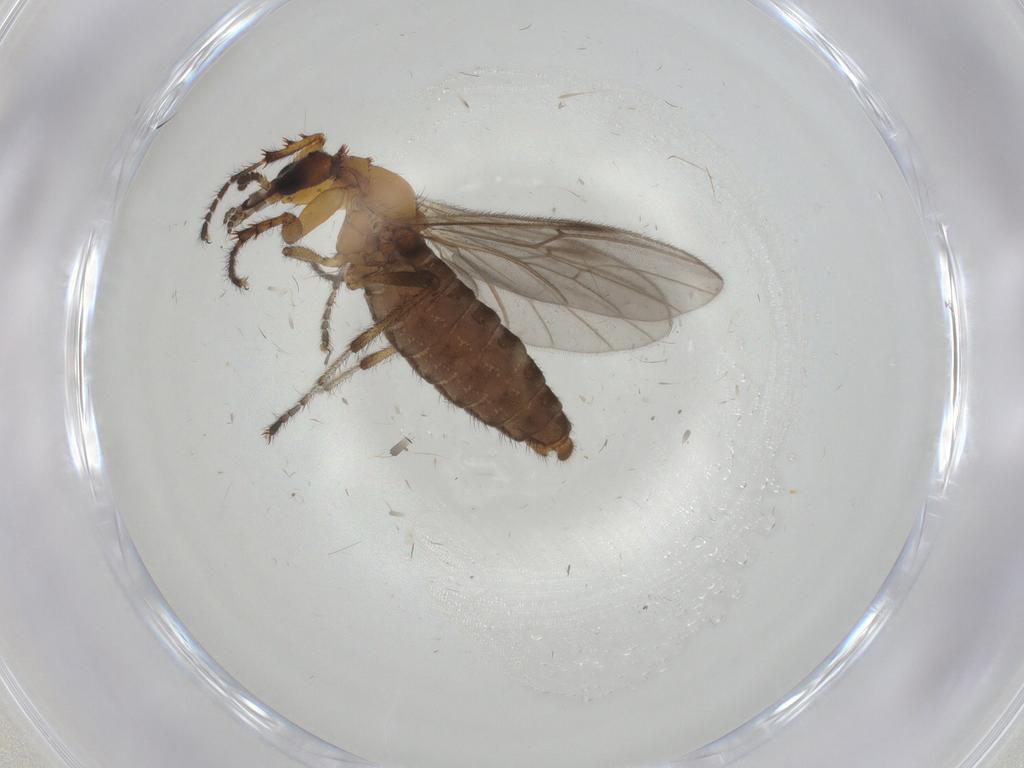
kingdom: Animalia
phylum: Arthropoda
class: Insecta
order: Diptera
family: Bibionidae
